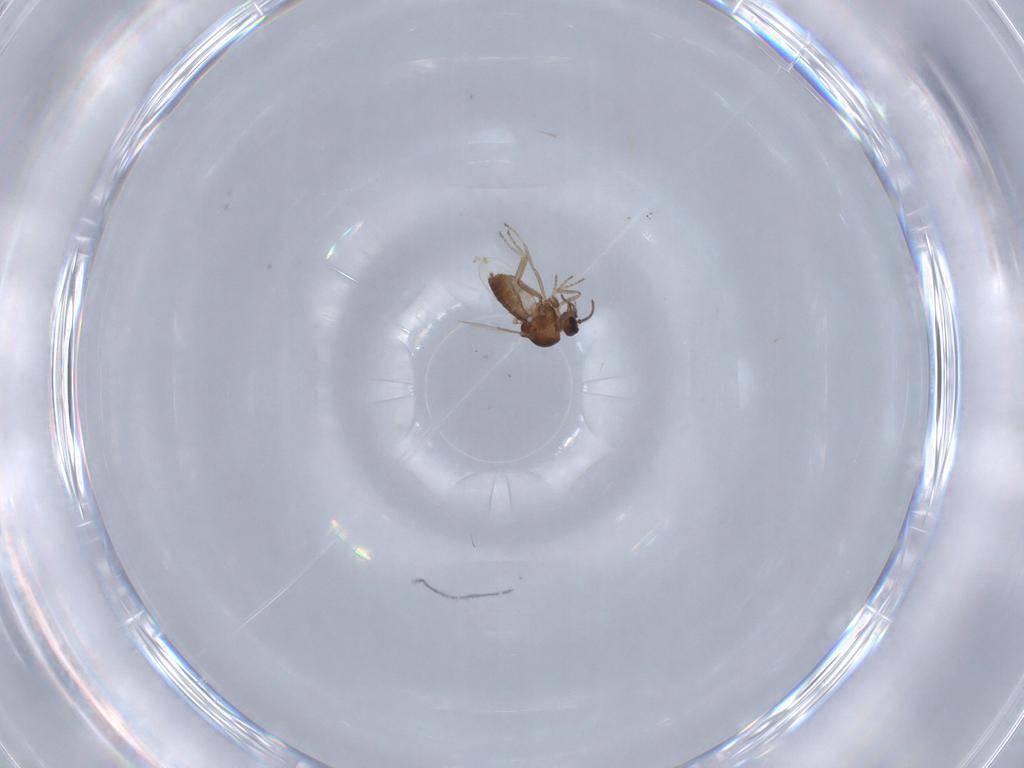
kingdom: Animalia
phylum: Arthropoda
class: Insecta
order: Diptera
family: Ceratopogonidae
